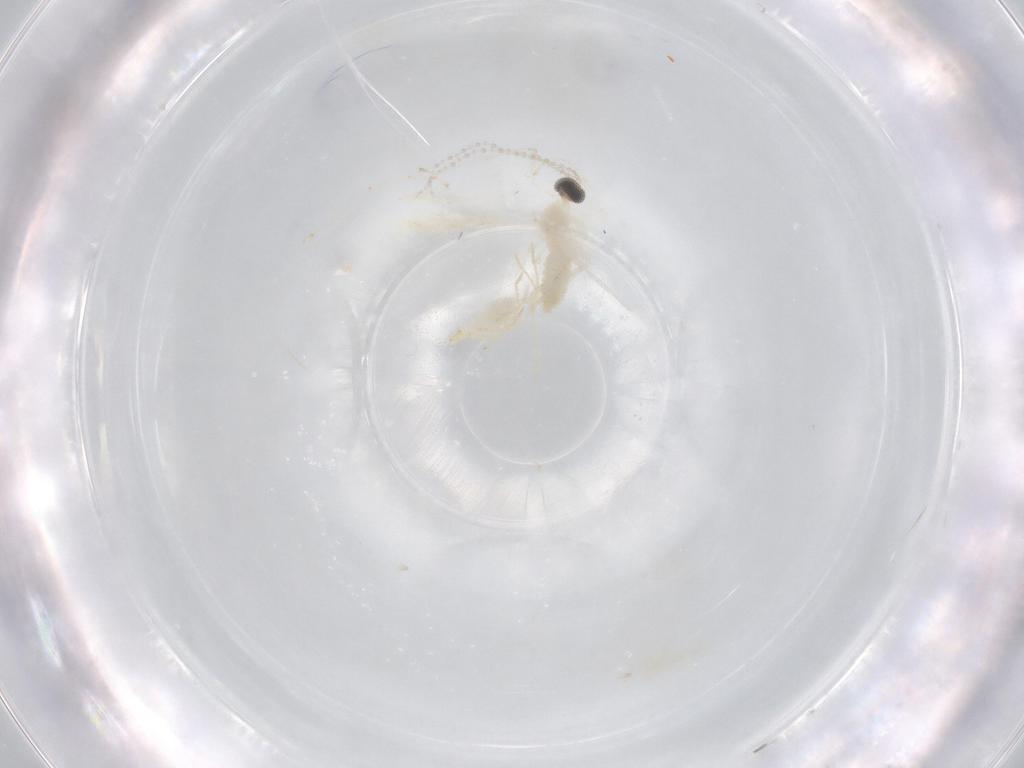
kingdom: Animalia
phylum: Arthropoda
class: Insecta
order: Diptera
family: Cecidomyiidae
